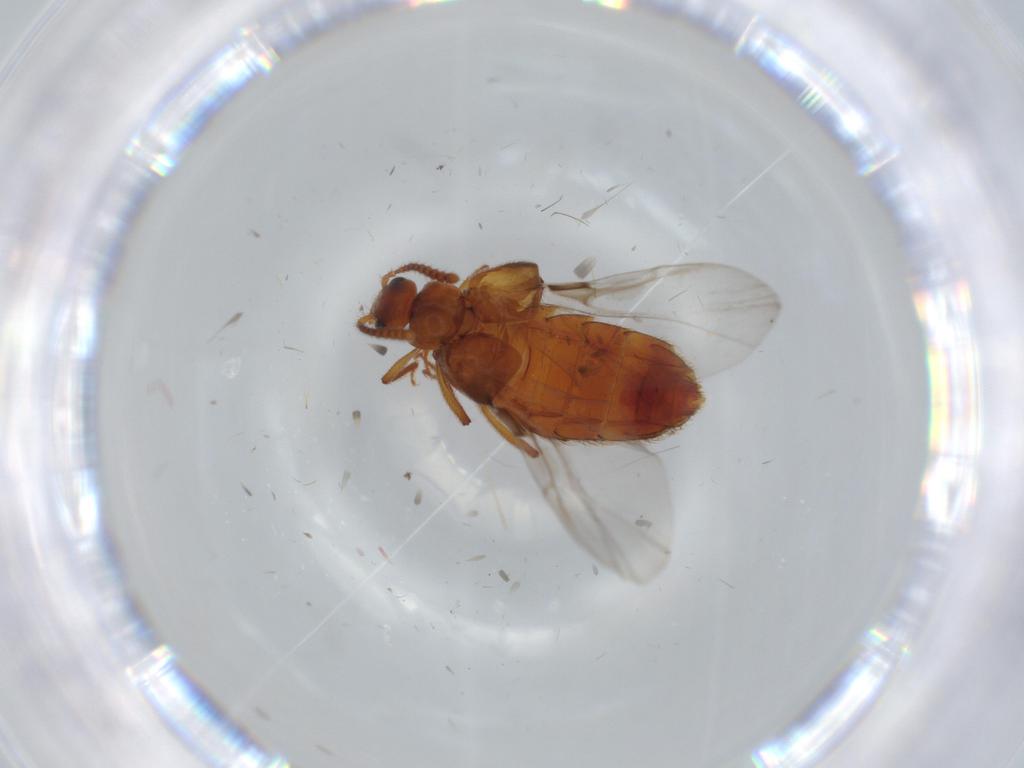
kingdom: Animalia
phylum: Arthropoda
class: Insecta
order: Coleoptera
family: Staphylinidae
